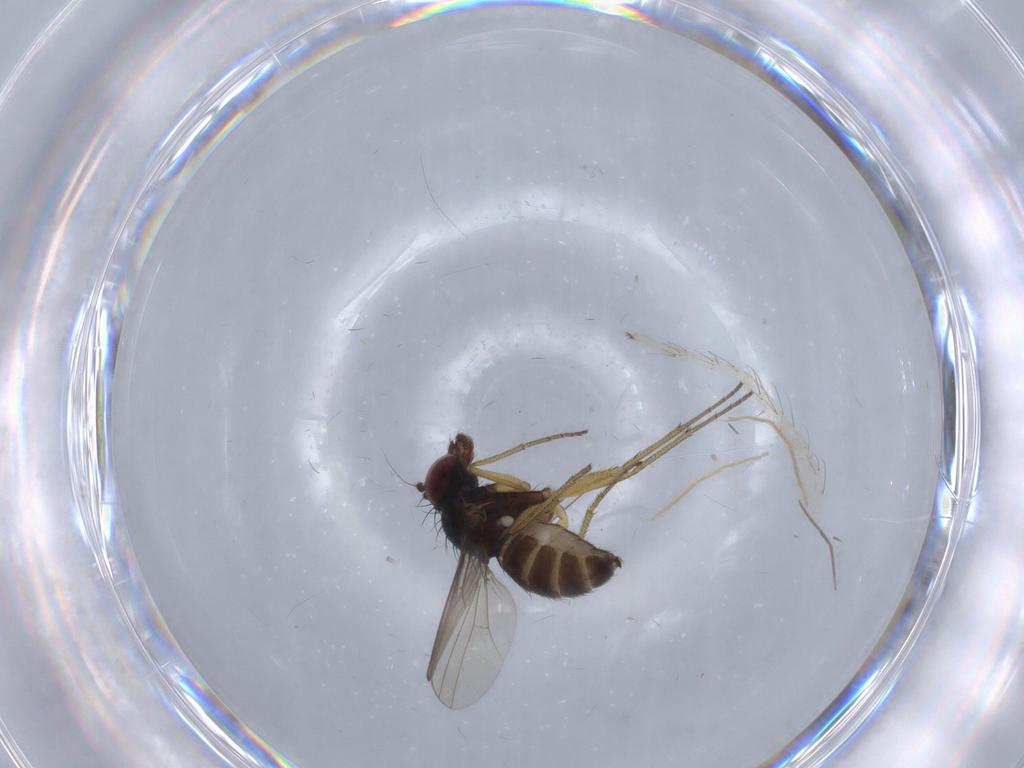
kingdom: Animalia
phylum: Arthropoda
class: Insecta
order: Diptera
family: Dolichopodidae
